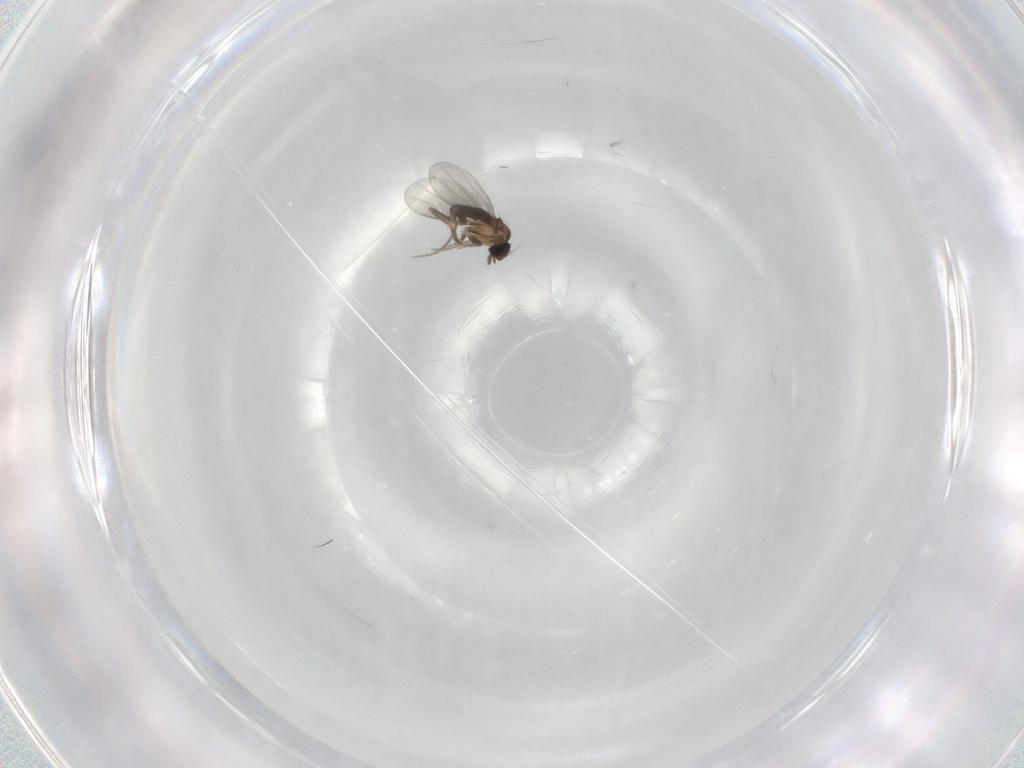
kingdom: Animalia
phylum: Arthropoda
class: Insecta
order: Diptera
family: Phoridae
